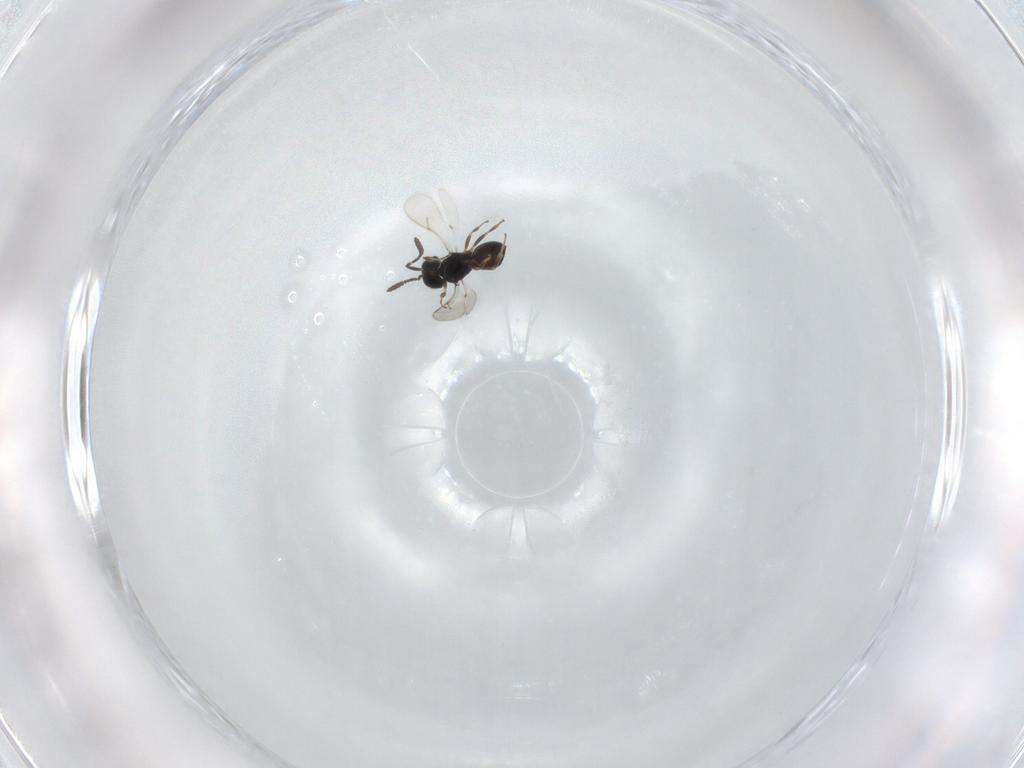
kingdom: Animalia
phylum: Arthropoda
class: Insecta
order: Hymenoptera
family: Scelionidae
